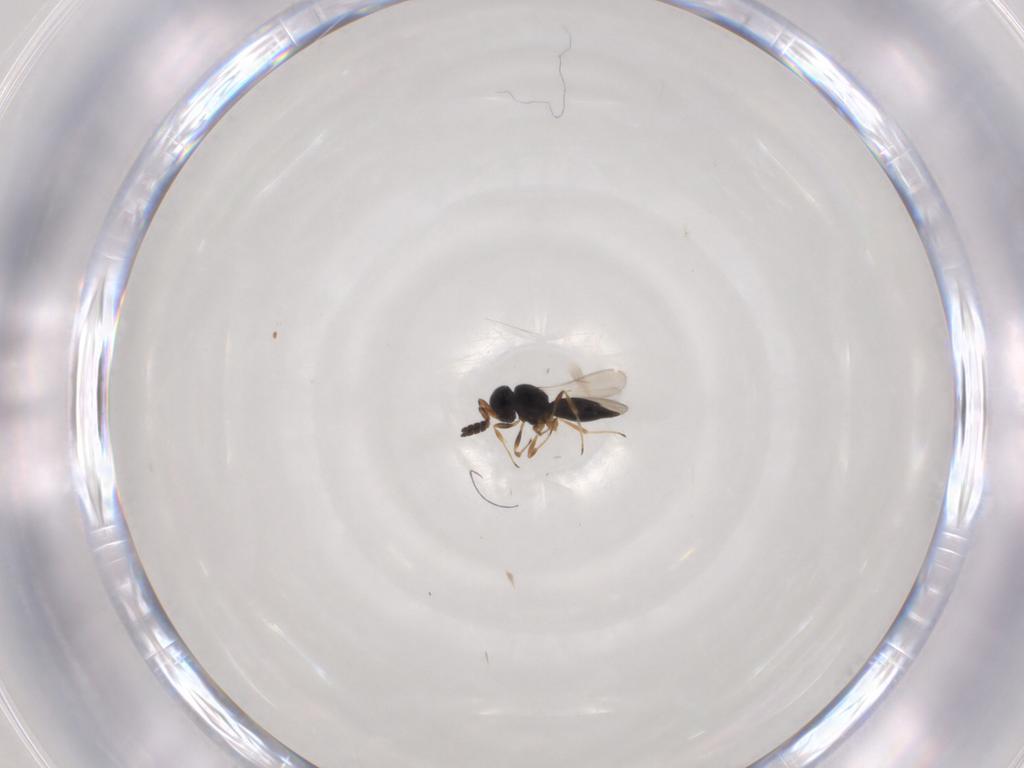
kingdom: Animalia
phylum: Arthropoda
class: Insecta
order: Hymenoptera
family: Scelionidae
